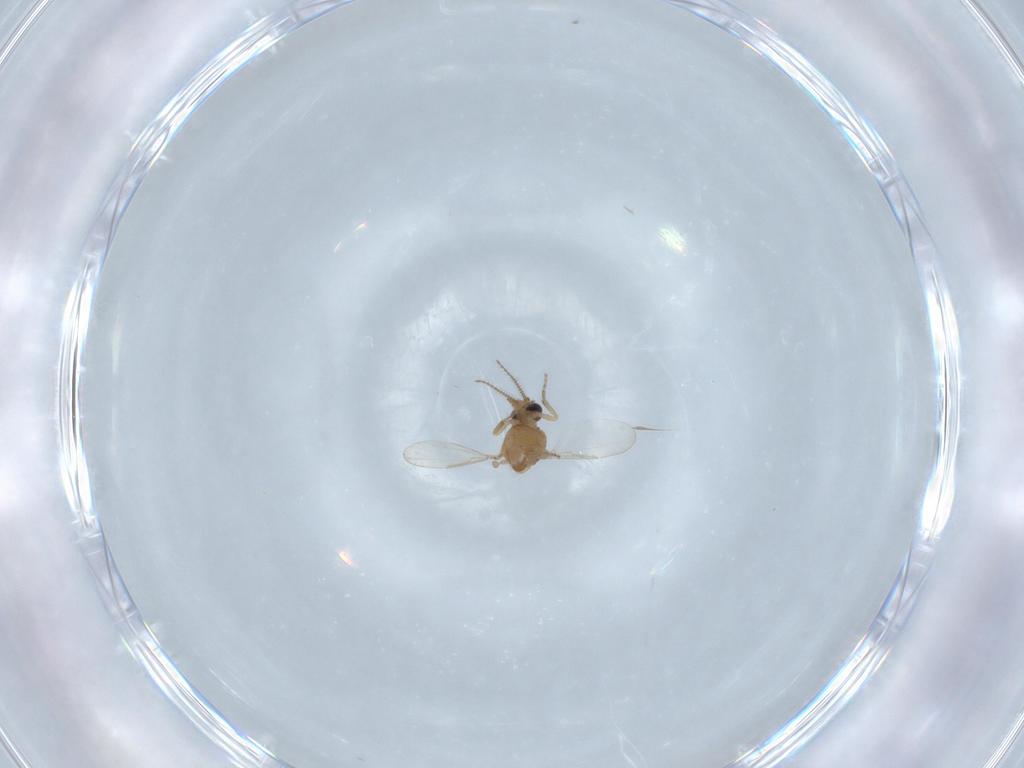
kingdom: Animalia
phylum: Arthropoda
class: Insecta
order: Diptera
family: Ceratopogonidae
